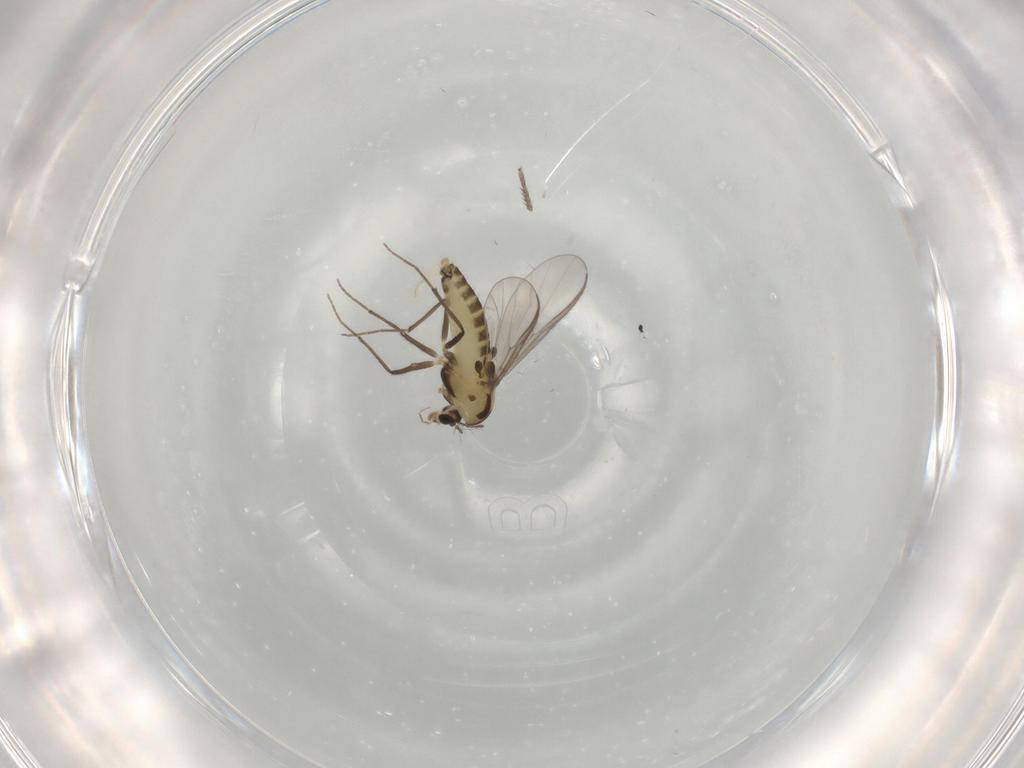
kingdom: Animalia
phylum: Arthropoda
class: Insecta
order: Diptera
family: Chironomidae
